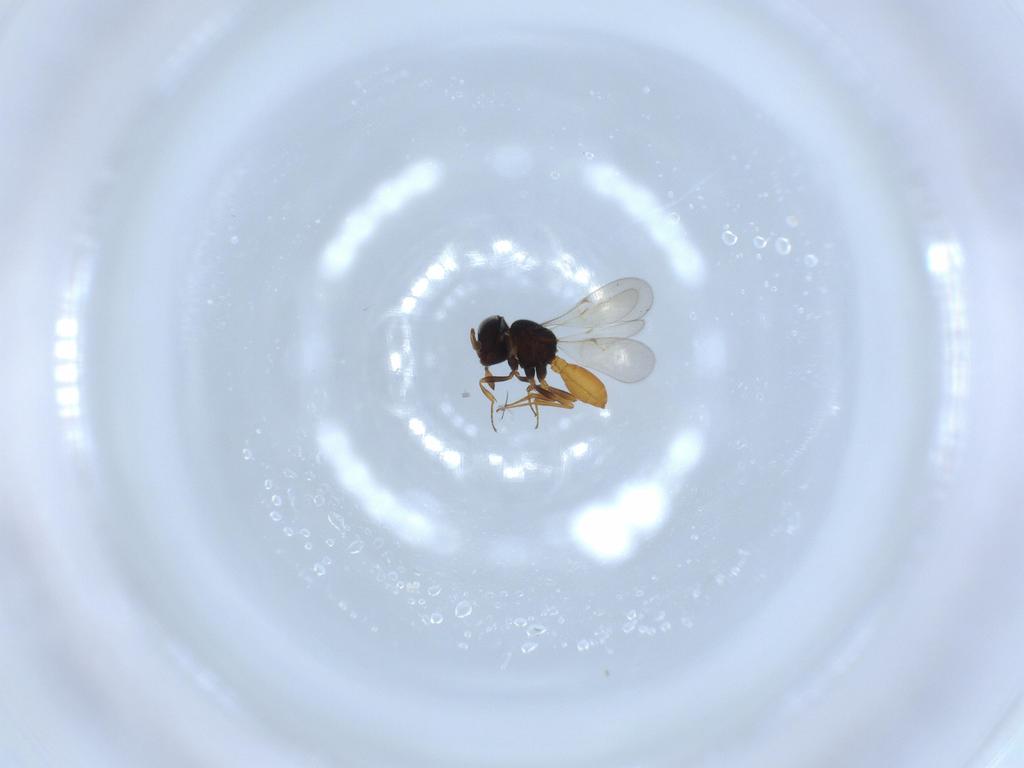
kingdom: Animalia
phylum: Arthropoda
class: Insecta
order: Hymenoptera
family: Scelionidae
